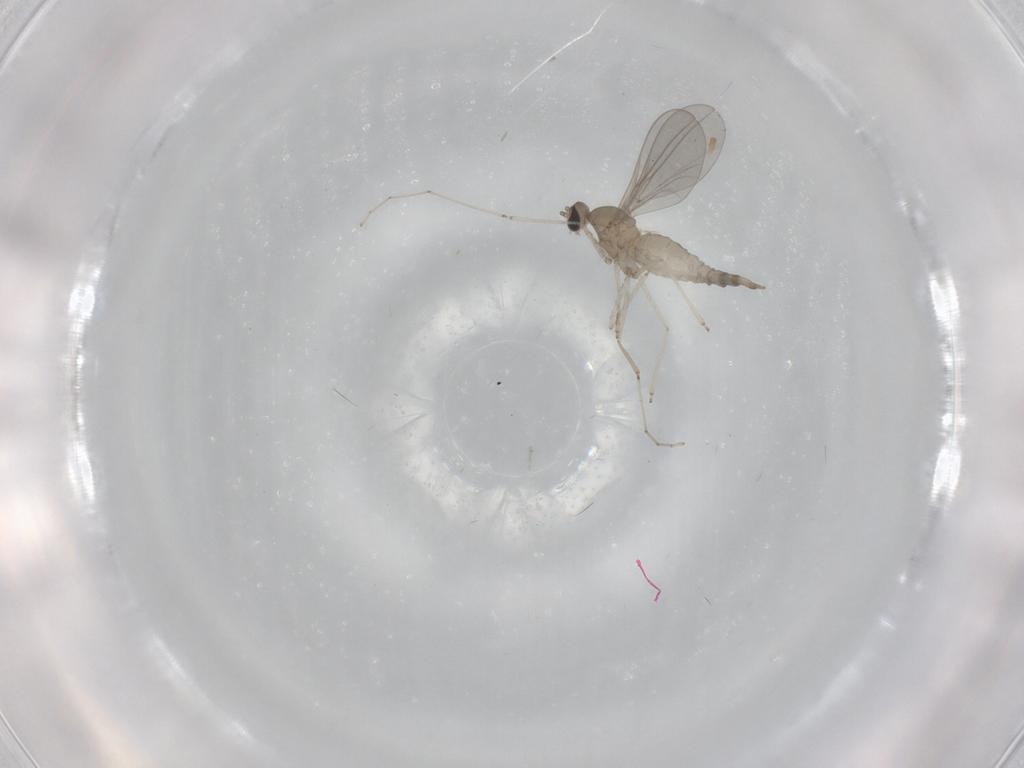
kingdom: Animalia
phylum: Arthropoda
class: Insecta
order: Diptera
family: Cecidomyiidae
